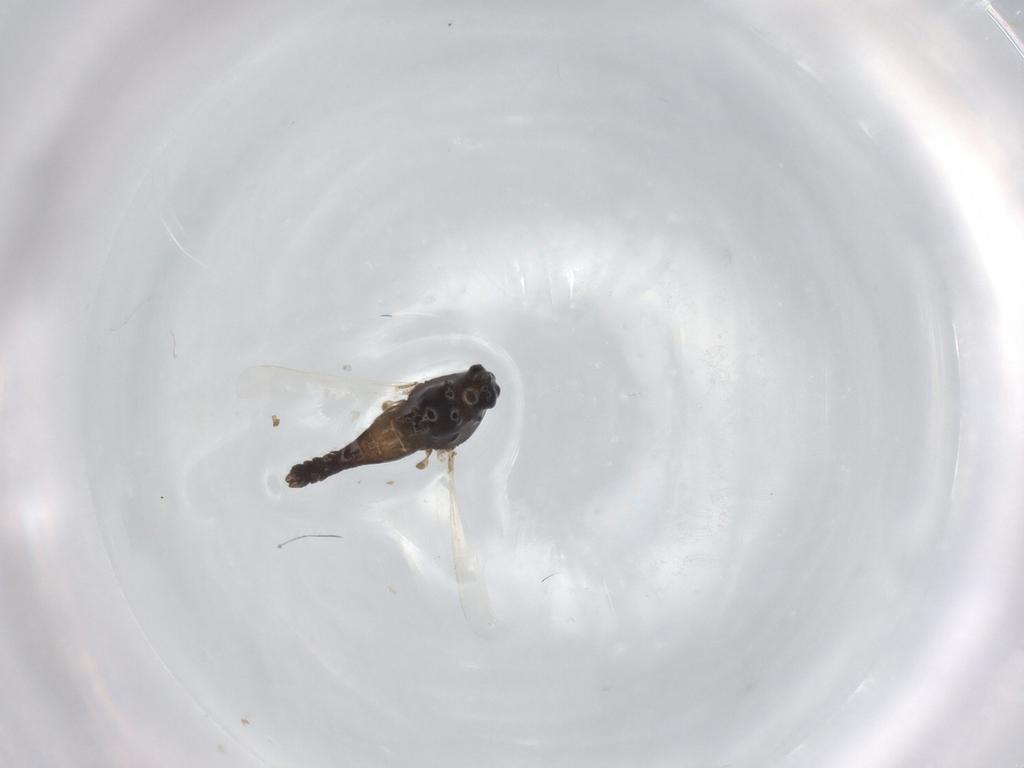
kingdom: Animalia
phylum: Arthropoda
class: Insecta
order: Diptera
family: Chironomidae
